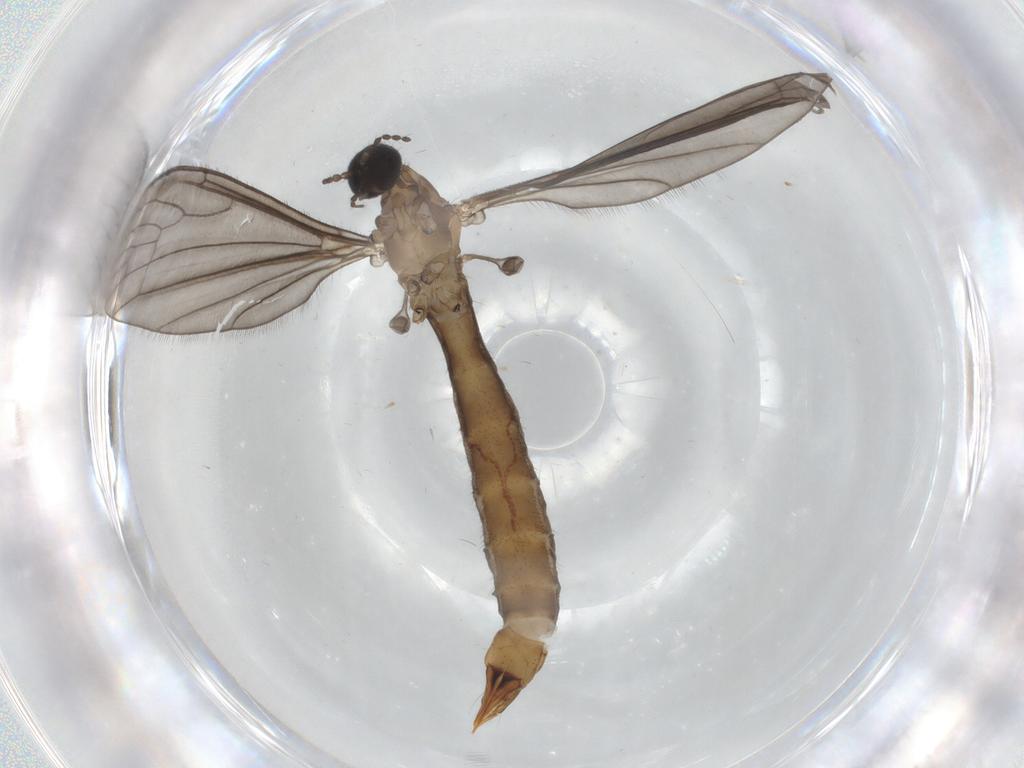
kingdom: Animalia
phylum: Arthropoda
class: Insecta
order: Diptera
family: Limoniidae
